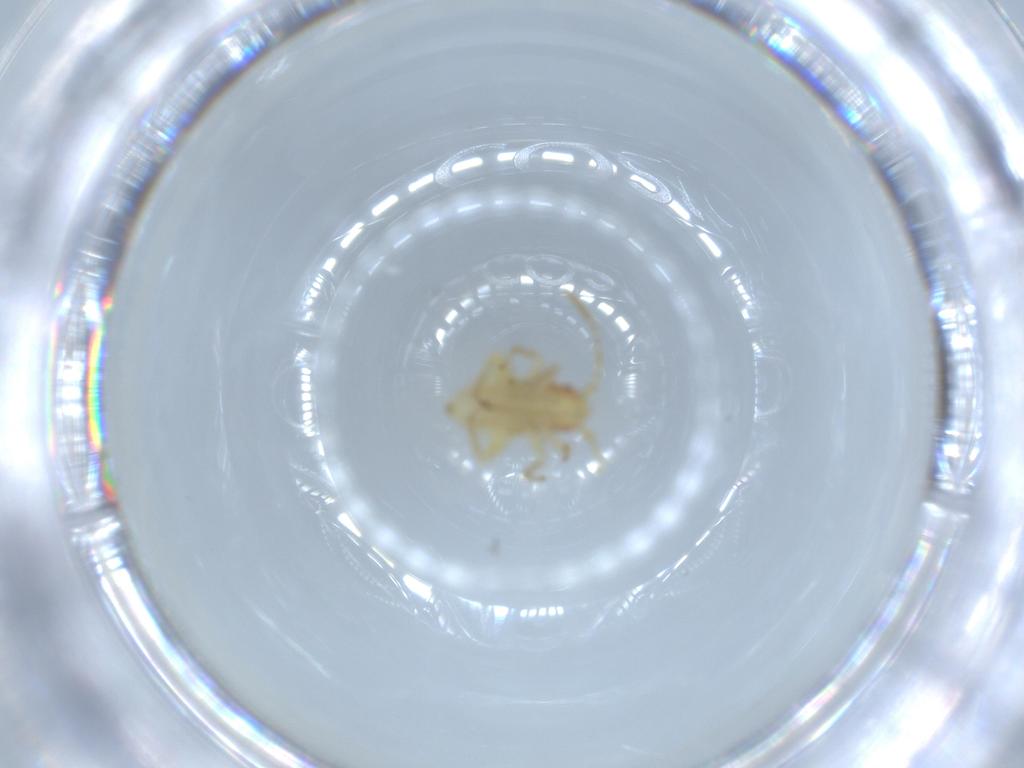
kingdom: Animalia
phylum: Arthropoda
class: Insecta
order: Hemiptera
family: Miridae
